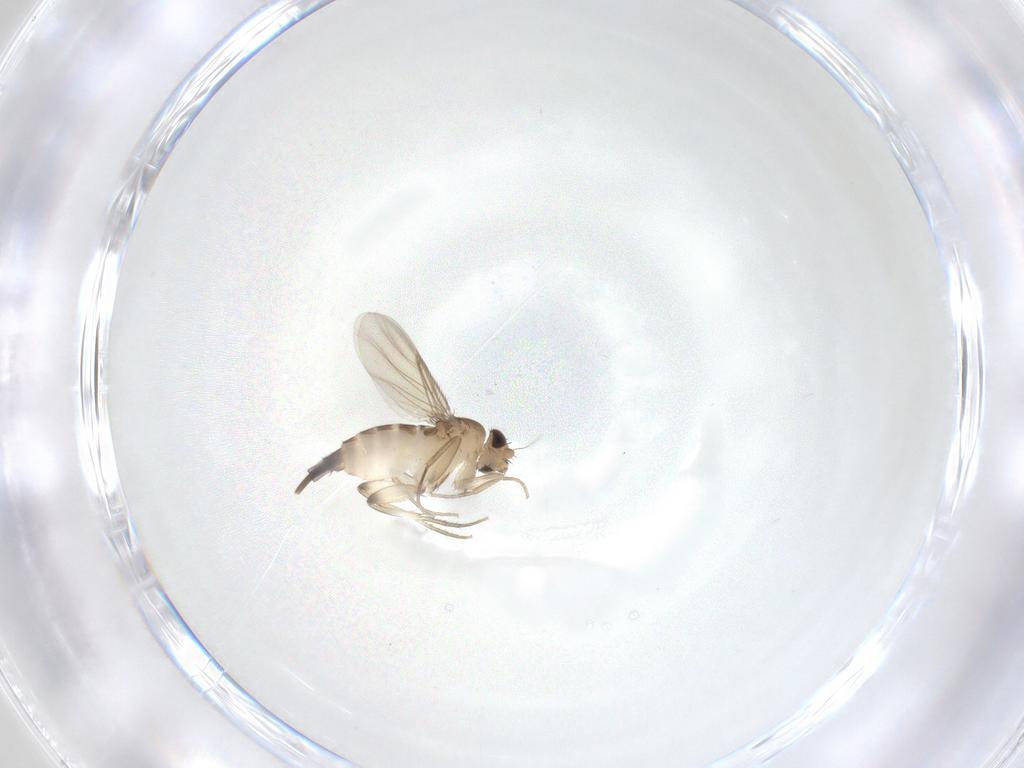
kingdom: Animalia
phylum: Arthropoda
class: Insecta
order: Diptera
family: Phoridae
